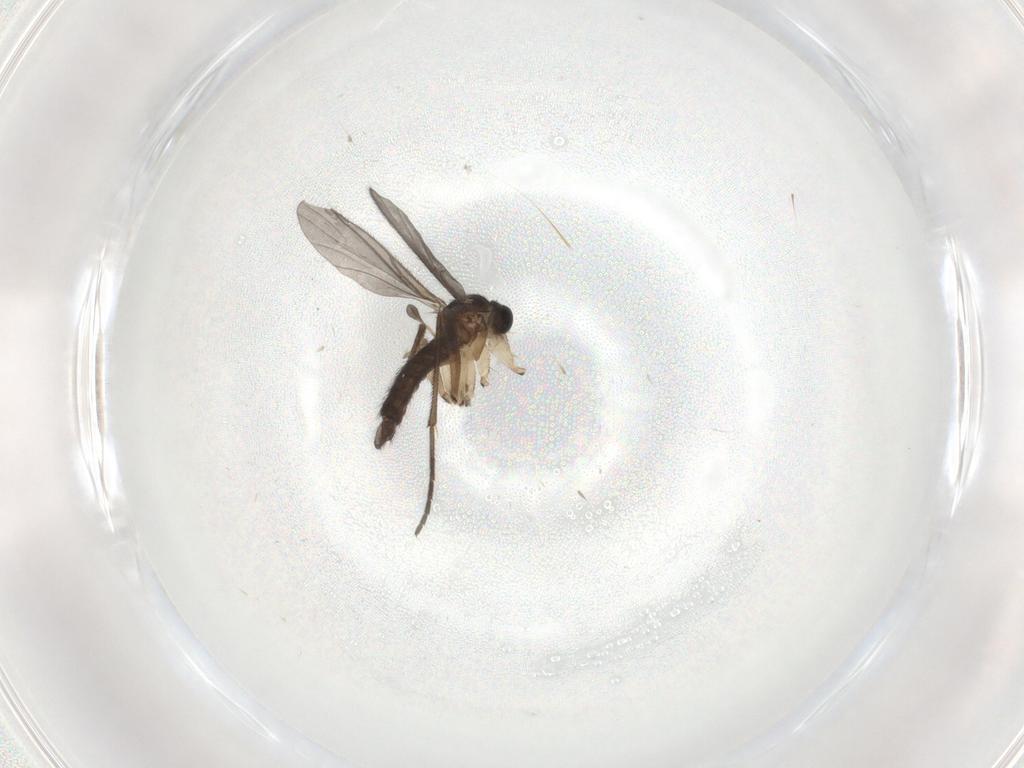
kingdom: Animalia
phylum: Arthropoda
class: Insecta
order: Diptera
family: Sciaridae
